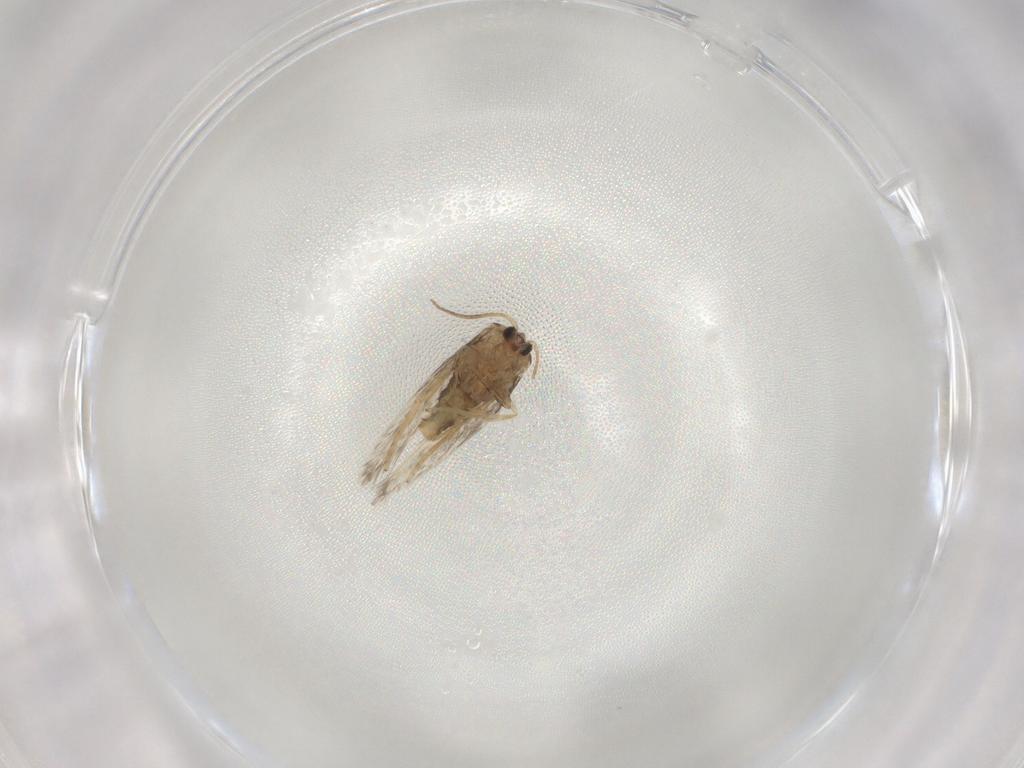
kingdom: Animalia
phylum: Arthropoda
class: Insecta
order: Lepidoptera
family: Nepticulidae
